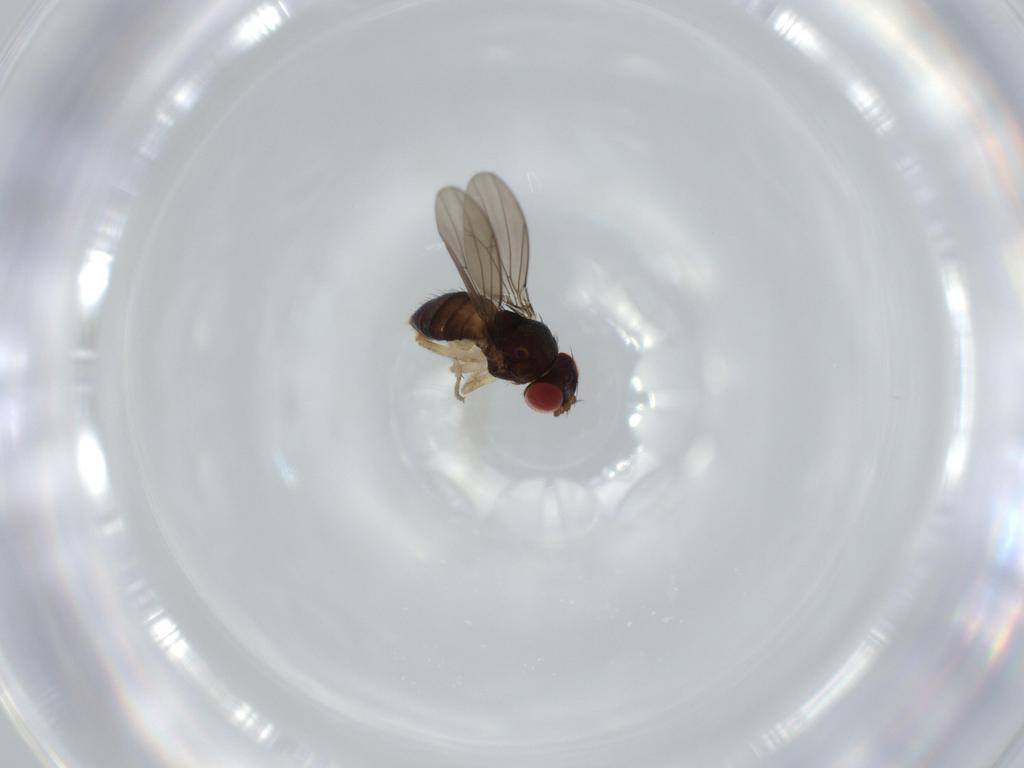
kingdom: Animalia
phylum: Arthropoda
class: Insecta
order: Diptera
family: Drosophilidae
